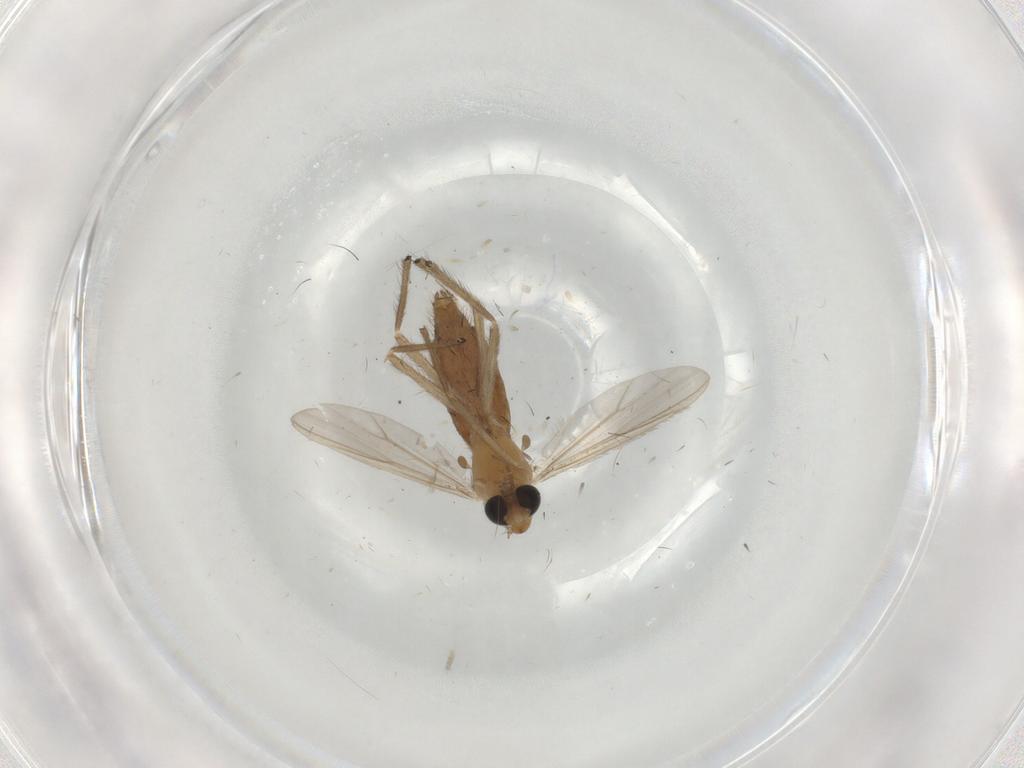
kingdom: Animalia
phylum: Arthropoda
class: Insecta
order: Diptera
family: Chironomidae
